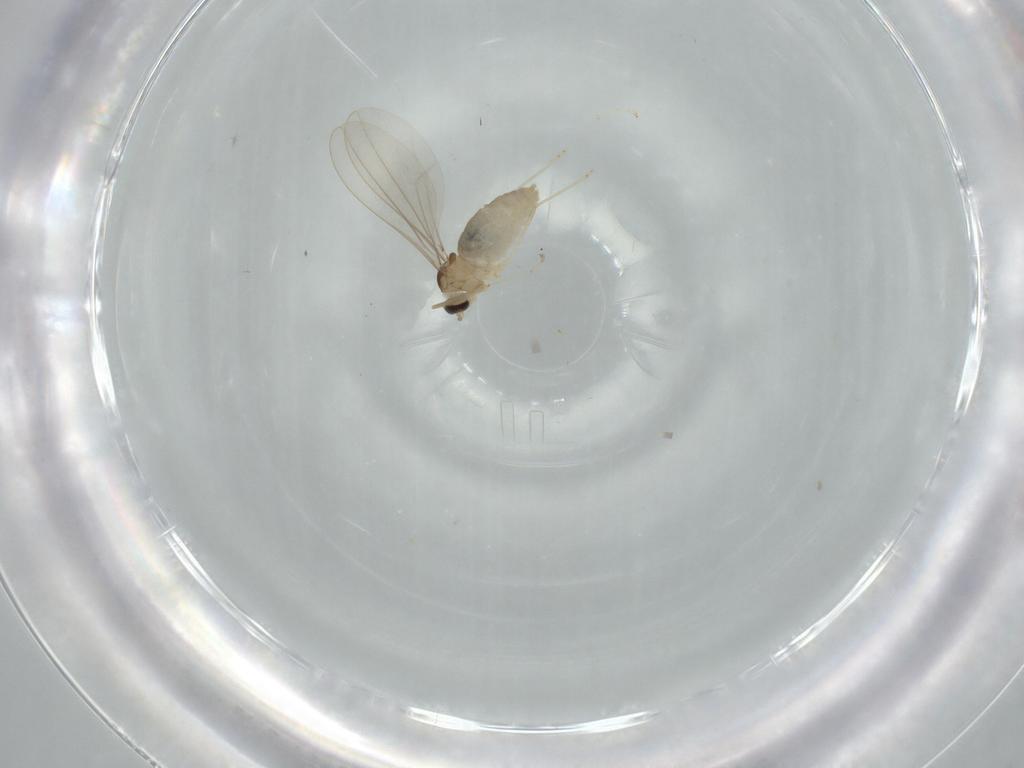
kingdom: Animalia
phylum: Arthropoda
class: Insecta
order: Diptera
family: Cecidomyiidae
